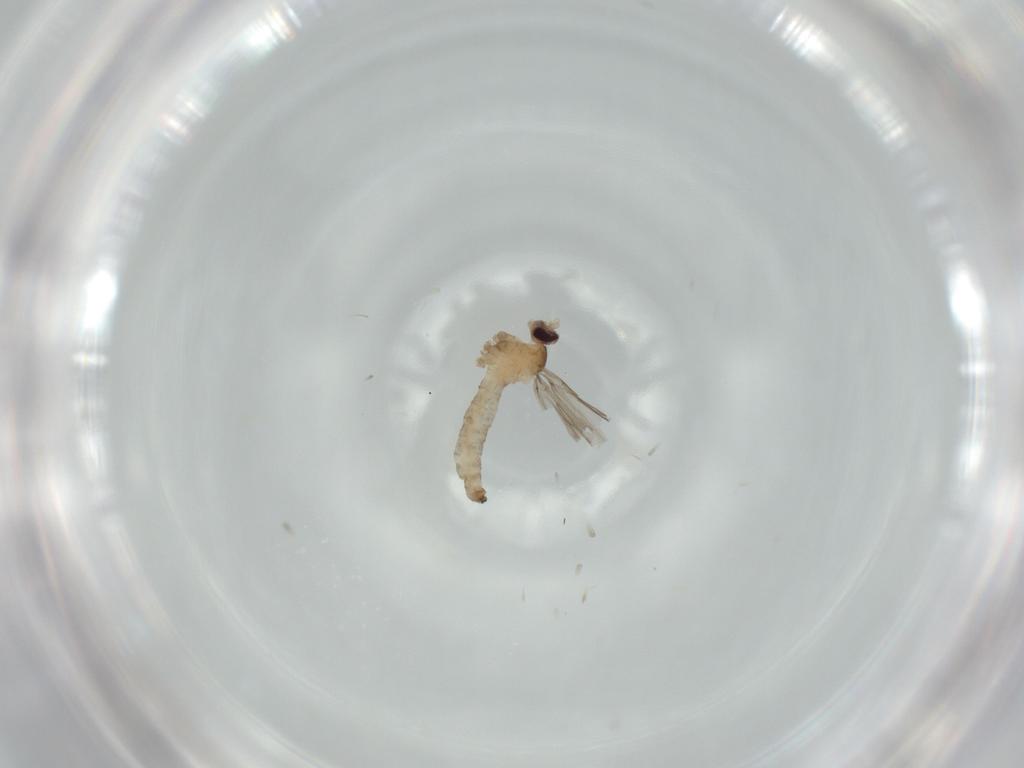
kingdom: Animalia
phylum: Arthropoda
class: Insecta
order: Diptera
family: Cecidomyiidae
